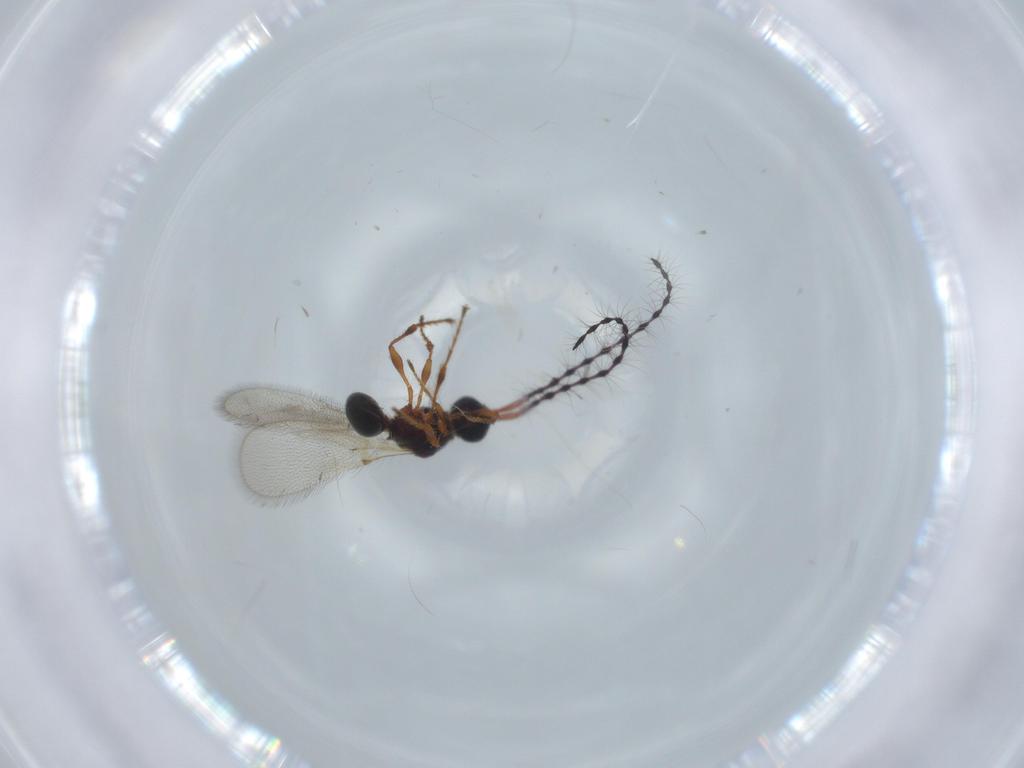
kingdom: Animalia
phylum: Arthropoda
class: Insecta
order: Hymenoptera
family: Diapriidae
